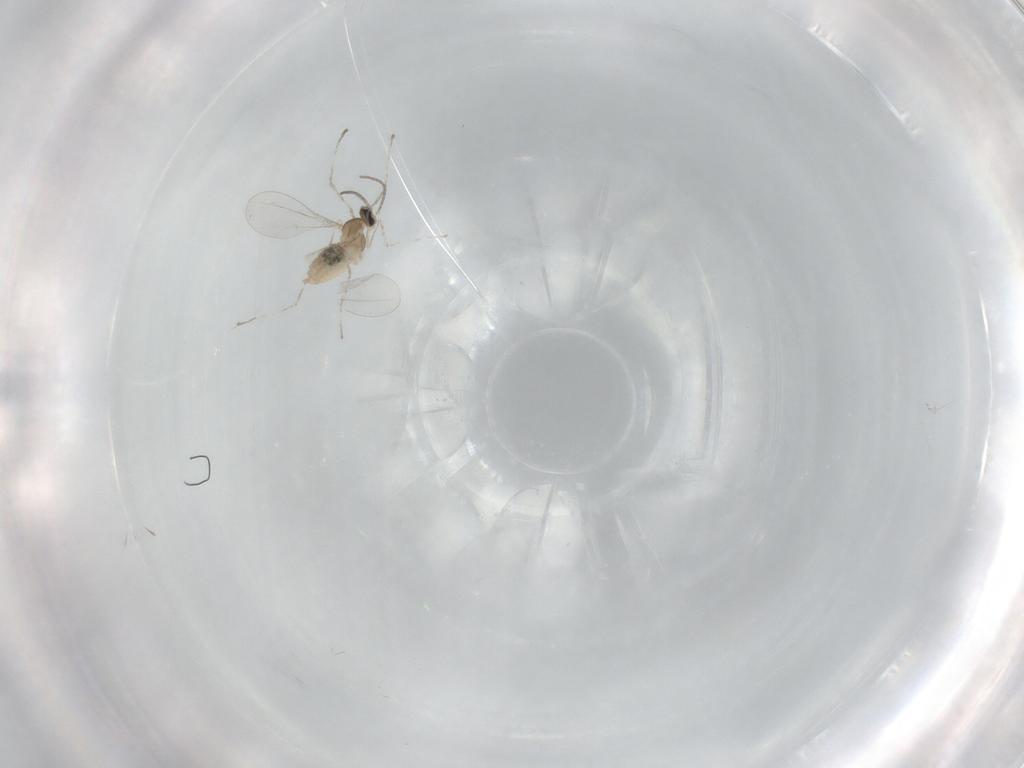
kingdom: Animalia
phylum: Arthropoda
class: Insecta
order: Diptera
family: Cecidomyiidae
